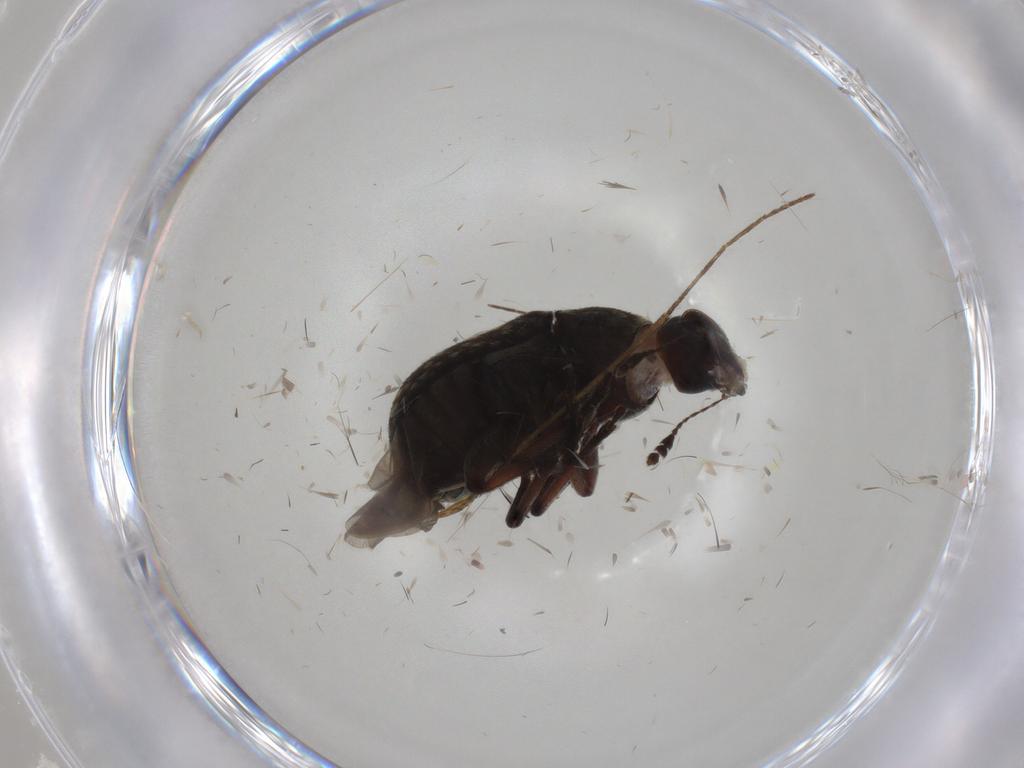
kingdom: Animalia
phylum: Arthropoda
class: Insecta
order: Coleoptera
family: Anthribidae
